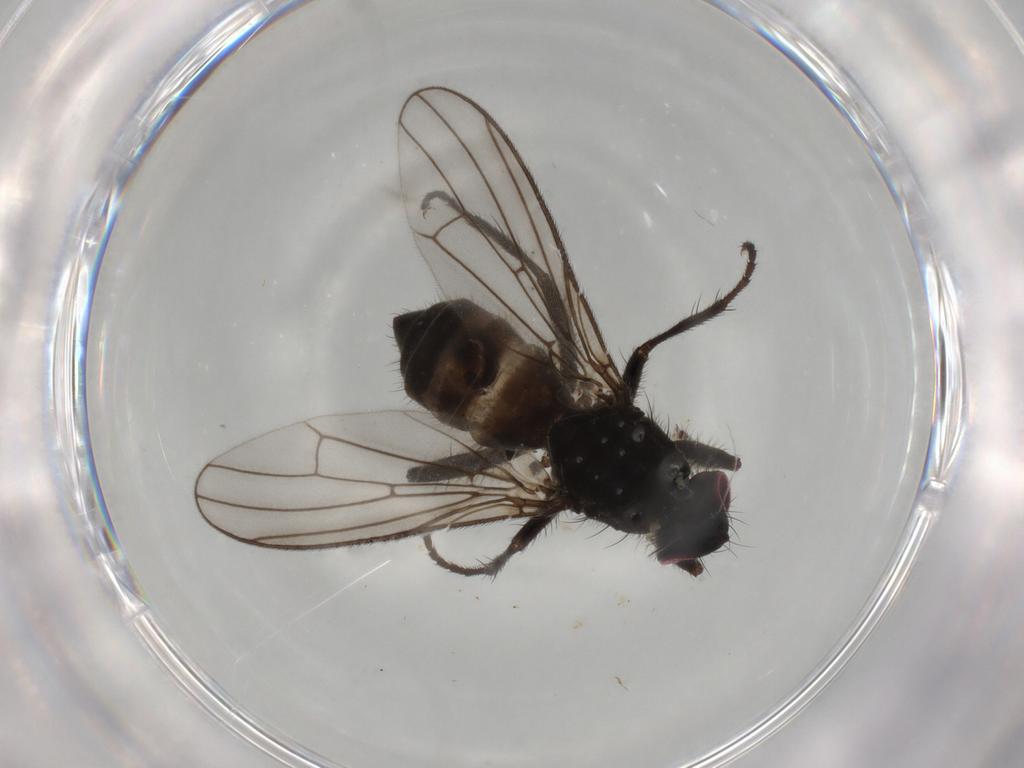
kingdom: Animalia
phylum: Arthropoda
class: Insecta
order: Diptera
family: Scathophagidae
